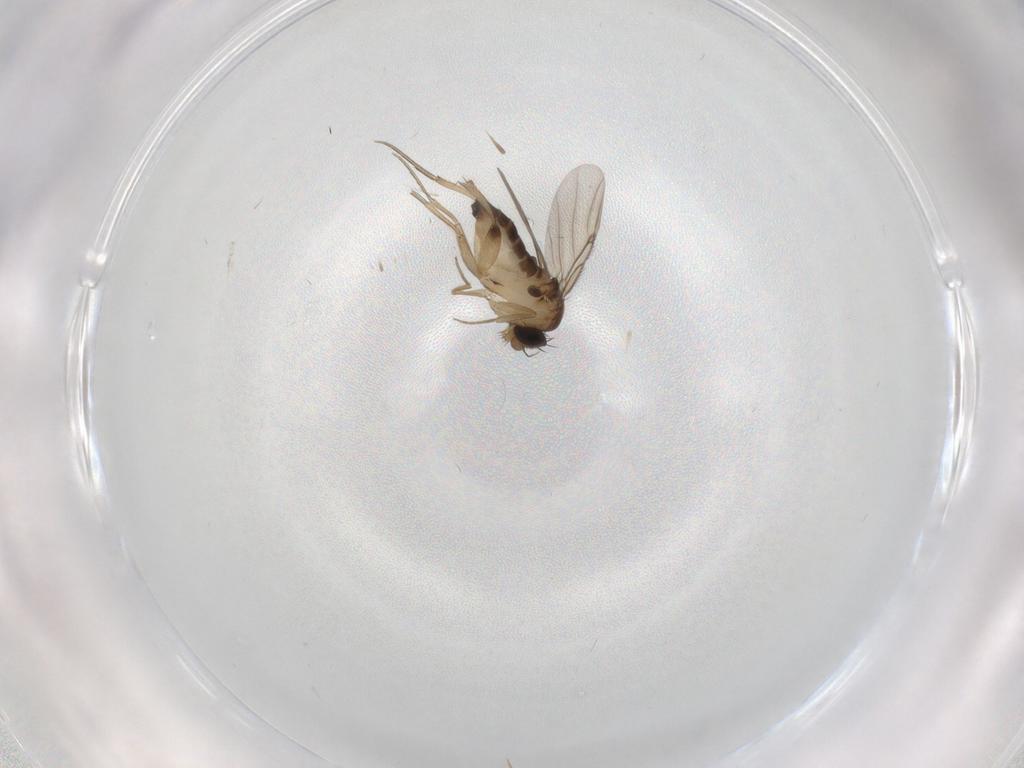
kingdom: Animalia
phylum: Arthropoda
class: Insecta
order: Diptera
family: Phoridae
